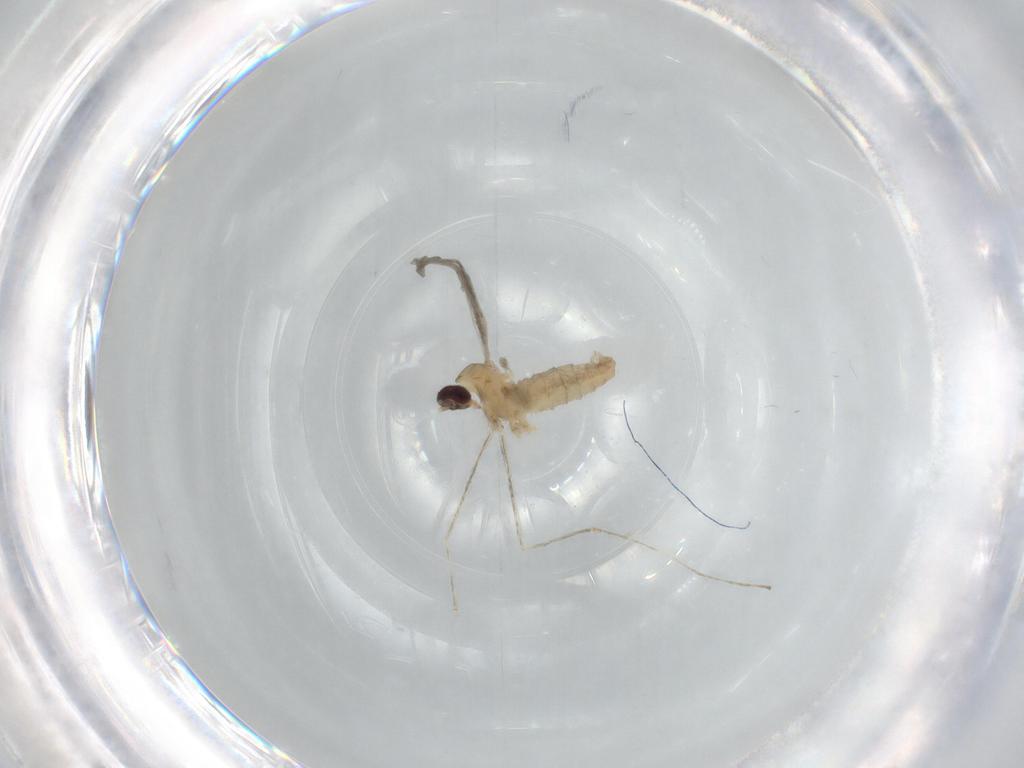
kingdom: Animalia
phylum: Arthropoda
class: Insecta
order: Diptera
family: Cecidomyiidae
